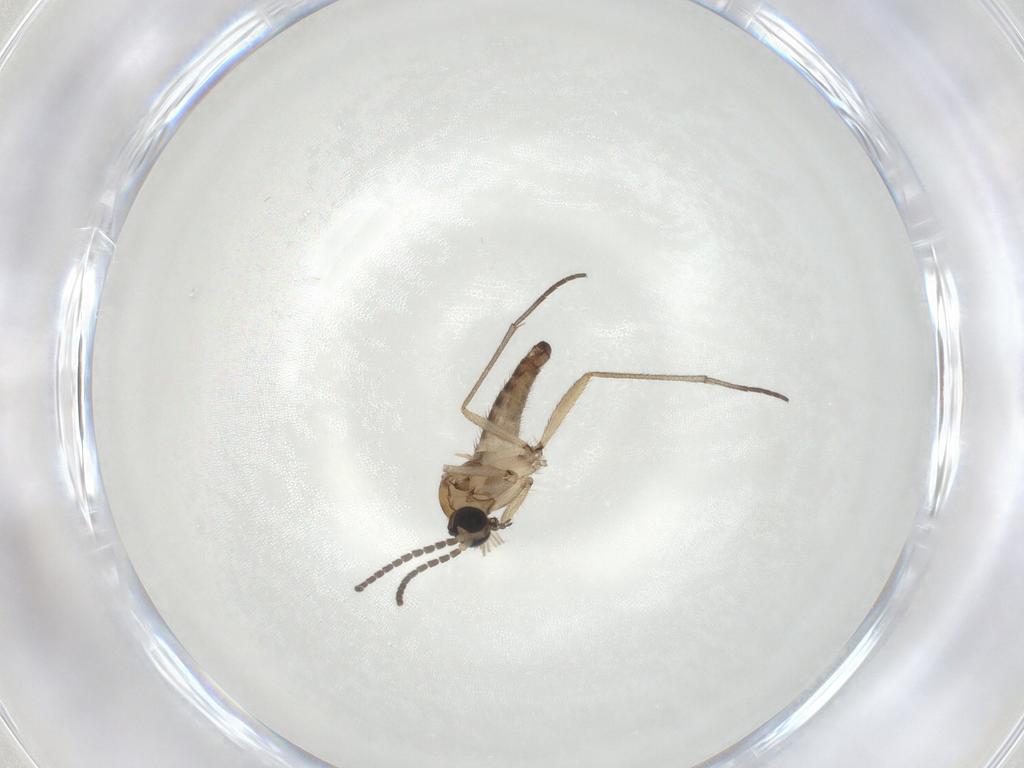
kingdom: Animalia
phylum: Arthropoda
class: Insecta
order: Diptera
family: Sciaridae
